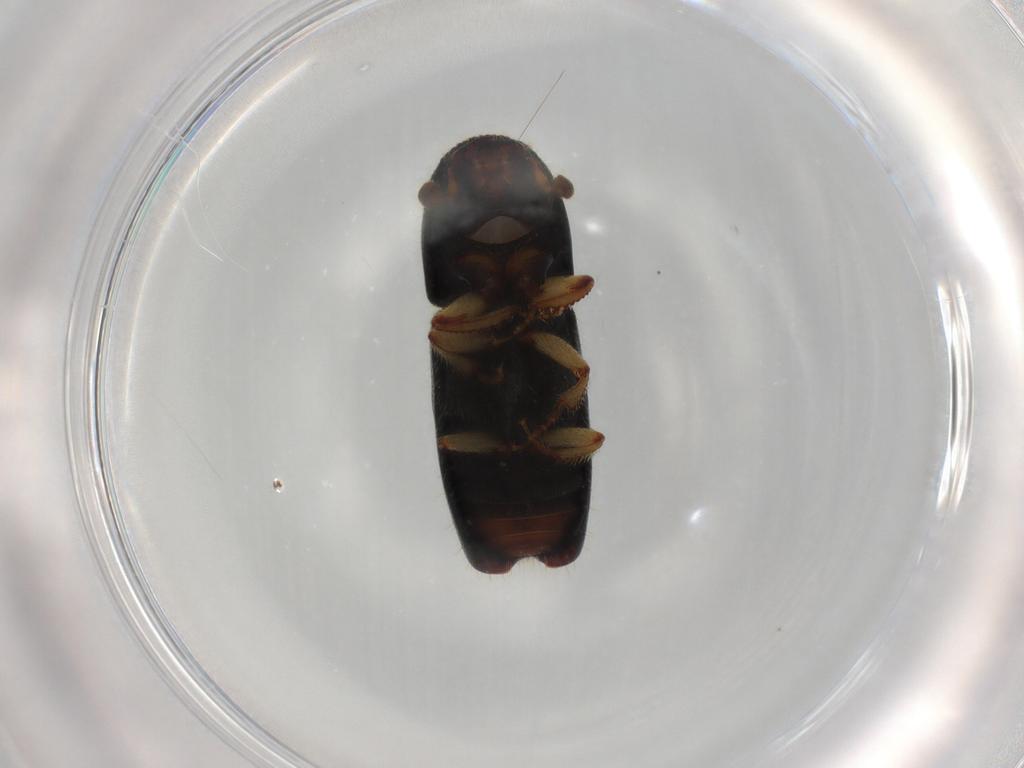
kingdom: Animalia
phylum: Arthropoda
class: Insecta
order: Coleoptera
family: Curculionidae
